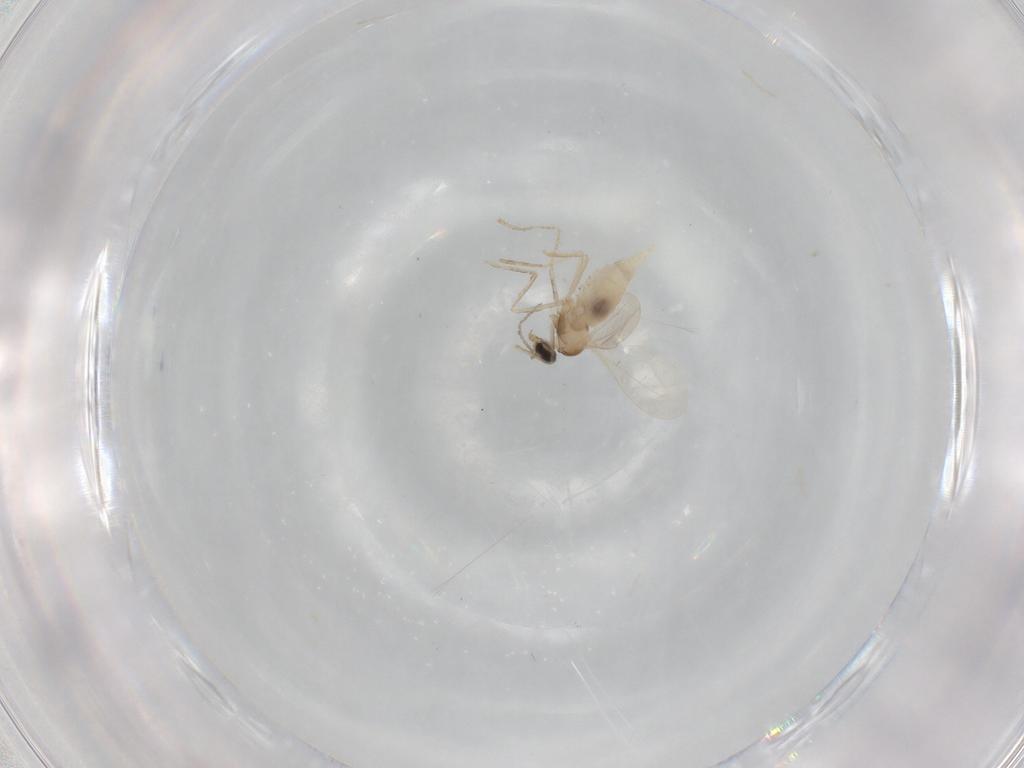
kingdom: Animalia
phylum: Arthropoda
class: Insecta
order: Diptera
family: Cecidomyiidae
